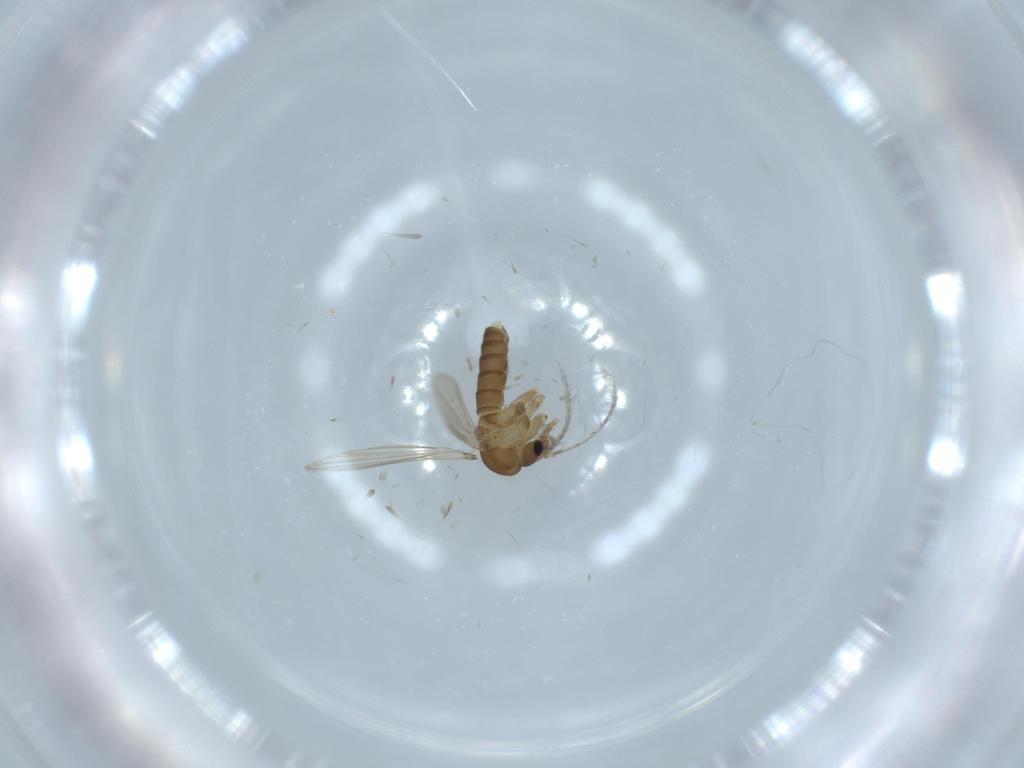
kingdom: Animalia
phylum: Arthropoda
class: Insecta
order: Diptera
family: Psychodidae
